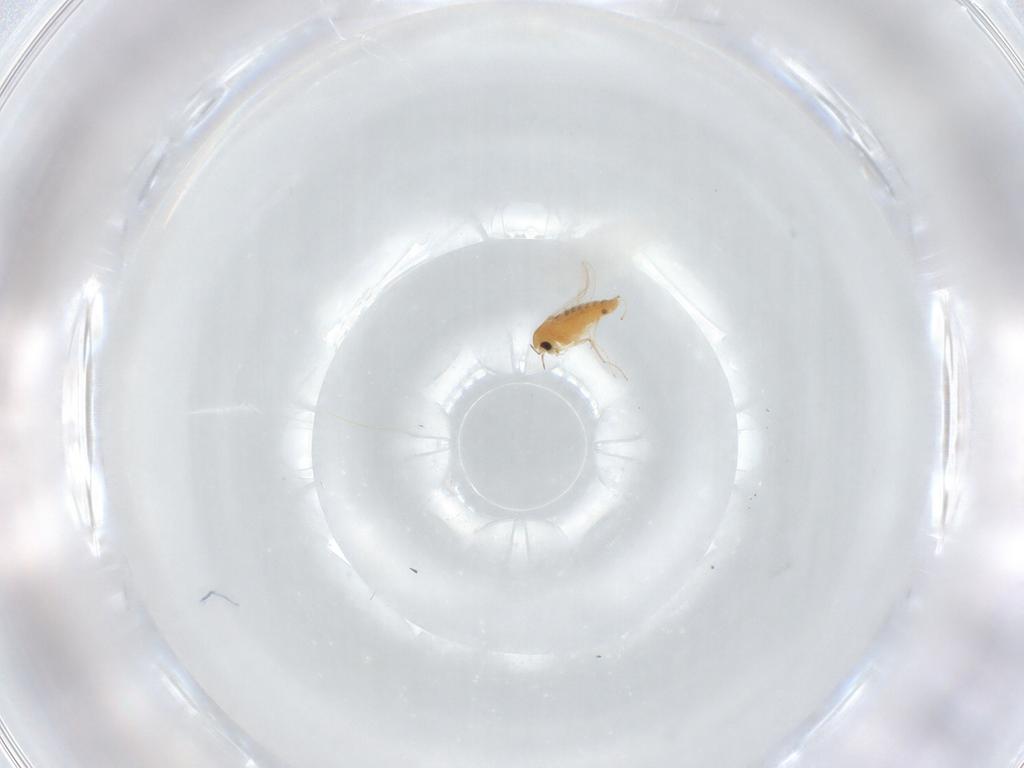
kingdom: Animalia
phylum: Arthropoda
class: Insecta
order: Diptera
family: Chironomidae
